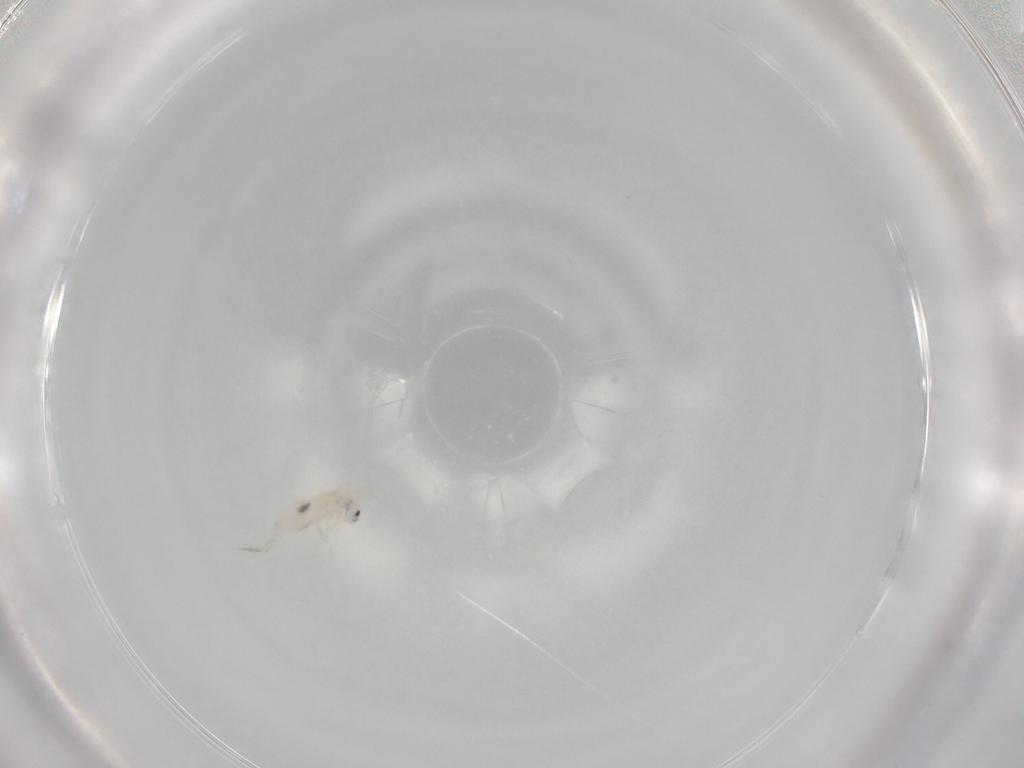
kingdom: Animalia
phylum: Arthropoda
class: Collembola
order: Entomobryomorpha
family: Entomobryidae
